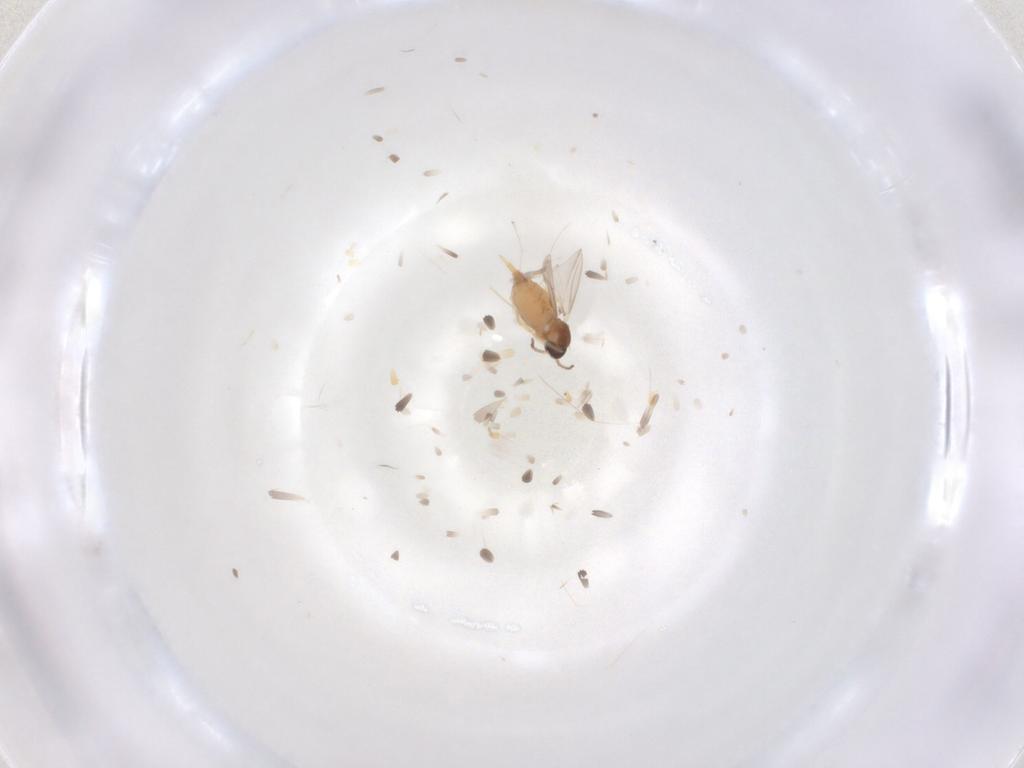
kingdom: Animalia
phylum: Arthropoda
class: Insecta
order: Diptera
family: Cecidomyiidae
